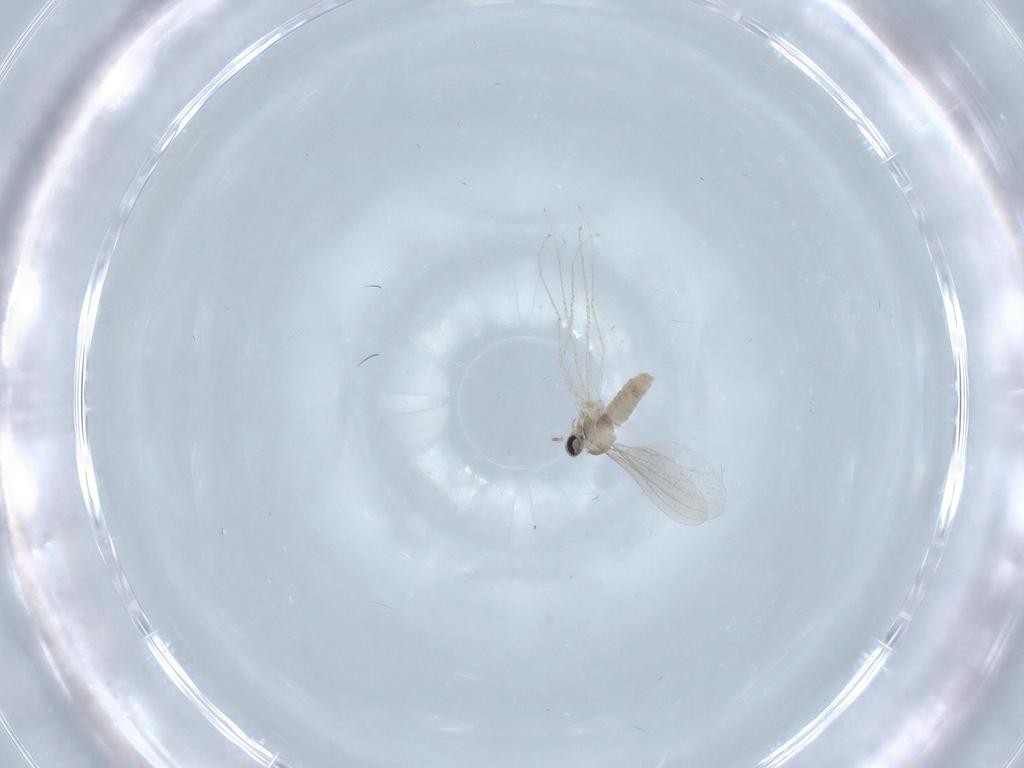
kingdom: Animalia
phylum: Arthropoda
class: Insecta
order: Diptera
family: Cecidomyiidae
